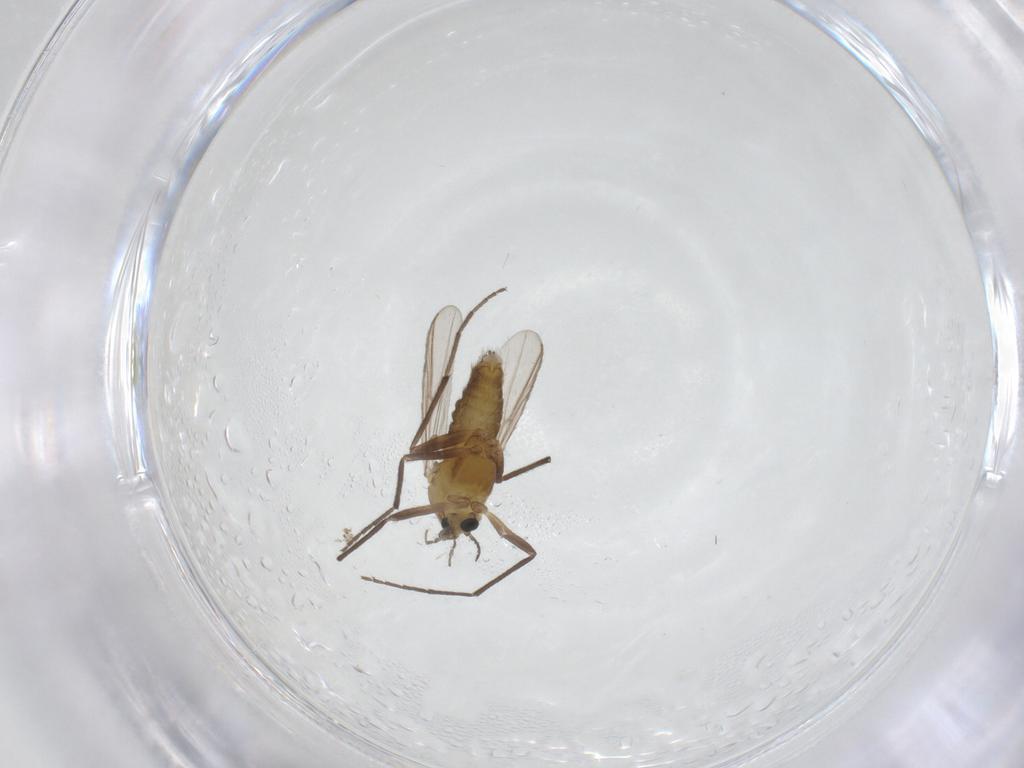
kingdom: Animalia
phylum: Arthropoda
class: Insecta
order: Diptera
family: Chironomidae
